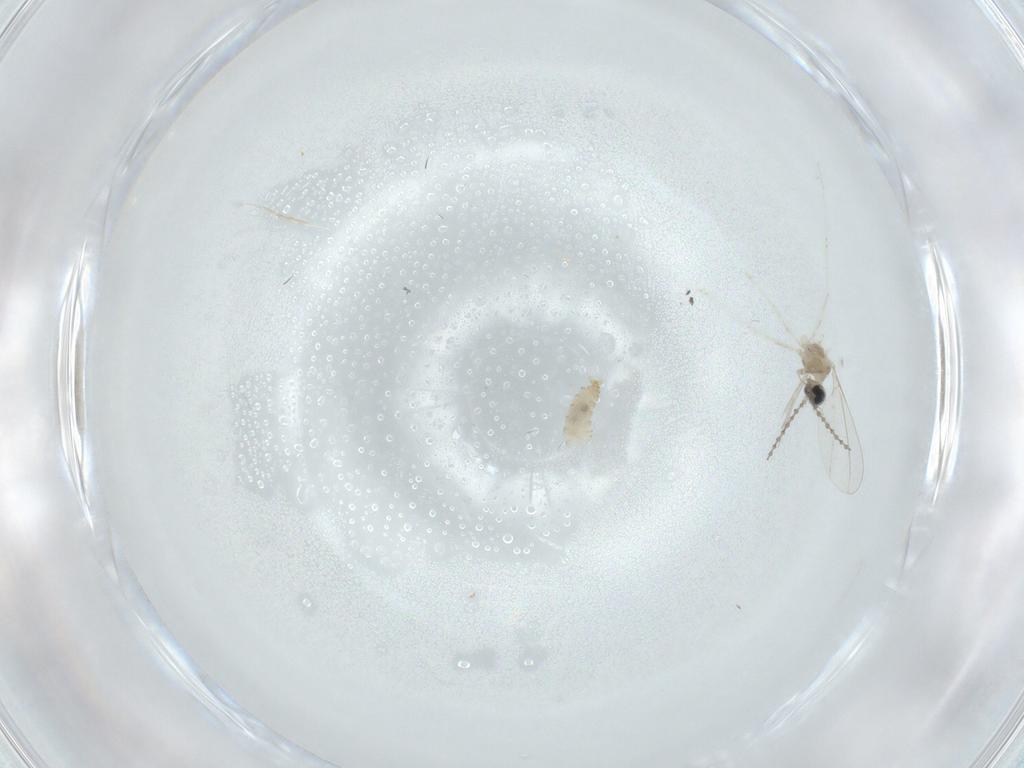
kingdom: Animalia
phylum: Arthropoda
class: Insecta
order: Diptera
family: Cecidomyiidae
